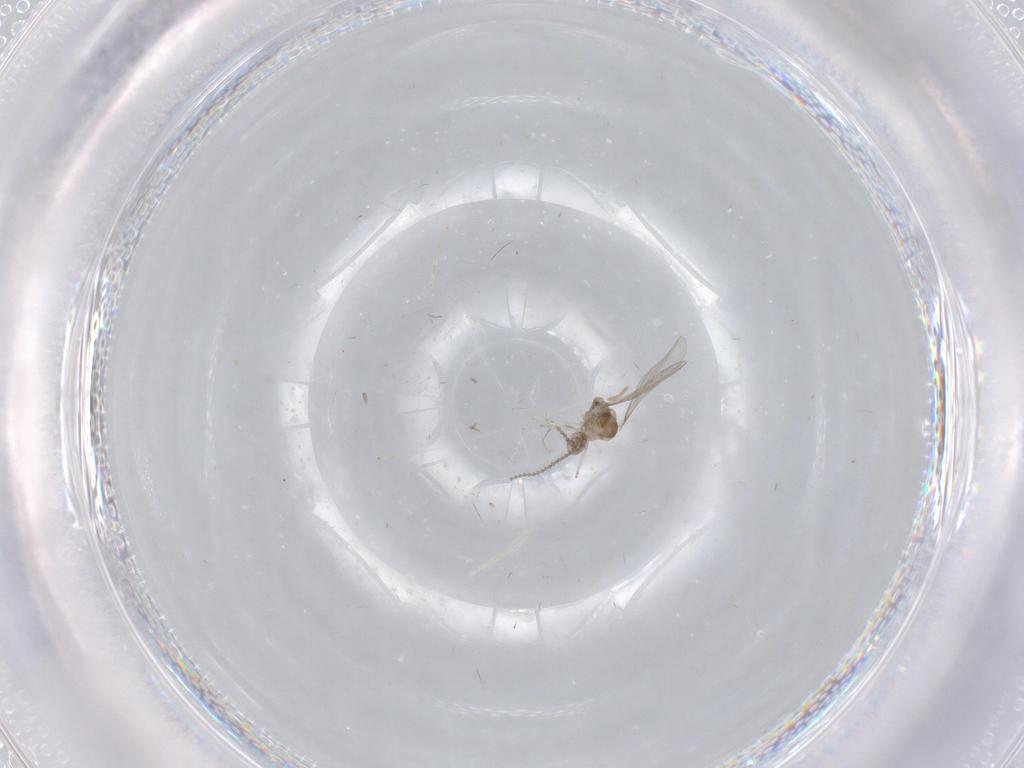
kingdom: Animalia
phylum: Arthropoda
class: Insecta
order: Diptera
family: Cecidomyiidae
